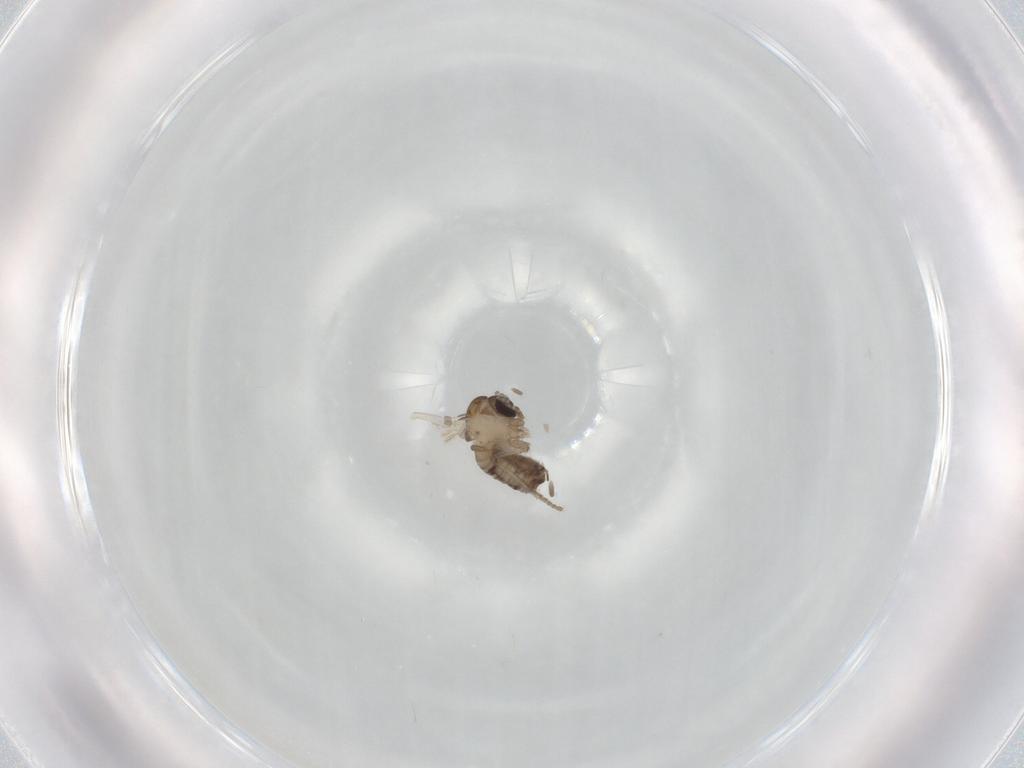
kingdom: Animalia
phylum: Arthropoda
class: Insecta
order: Diptera
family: Psychodidae
